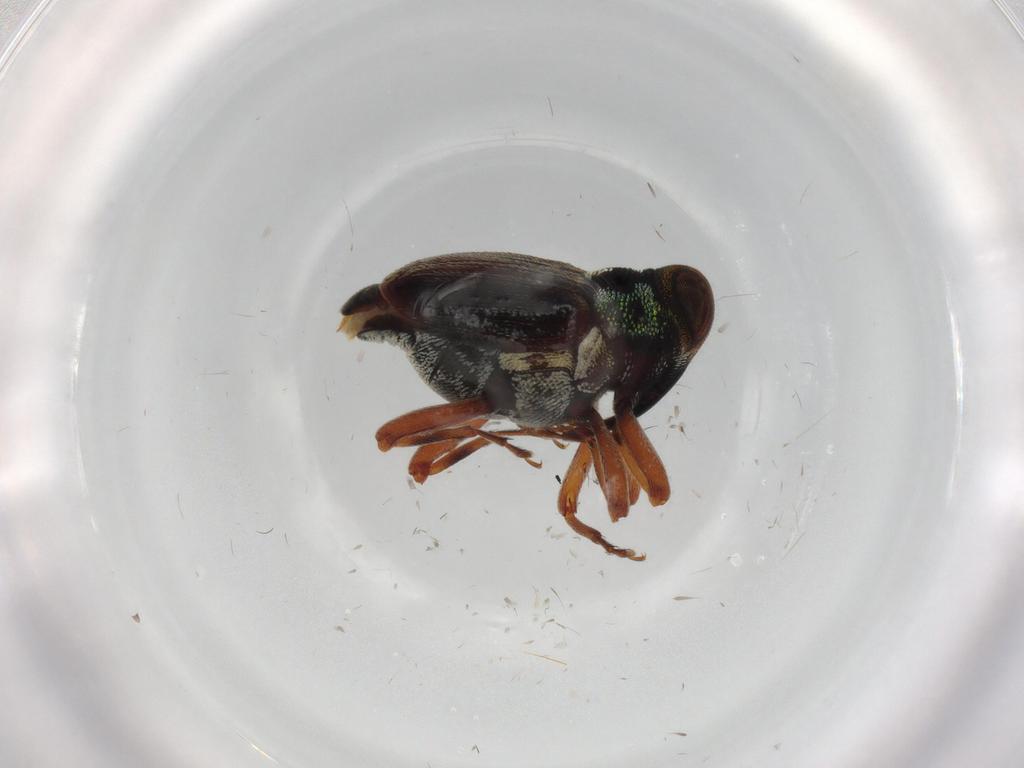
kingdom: Animalia
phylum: Arthropoda
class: Insecta
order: Coleoptera
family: Curculionidae
